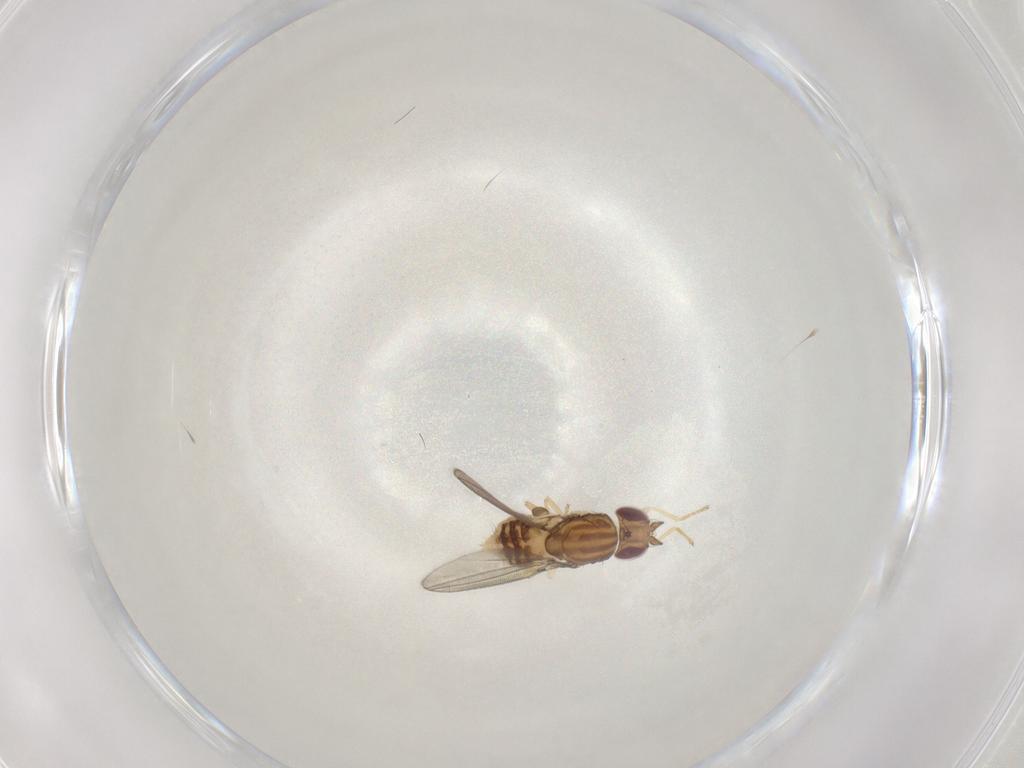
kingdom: Animalia
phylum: Arthropoda
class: Insecta
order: Diptera
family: Asteiidae
